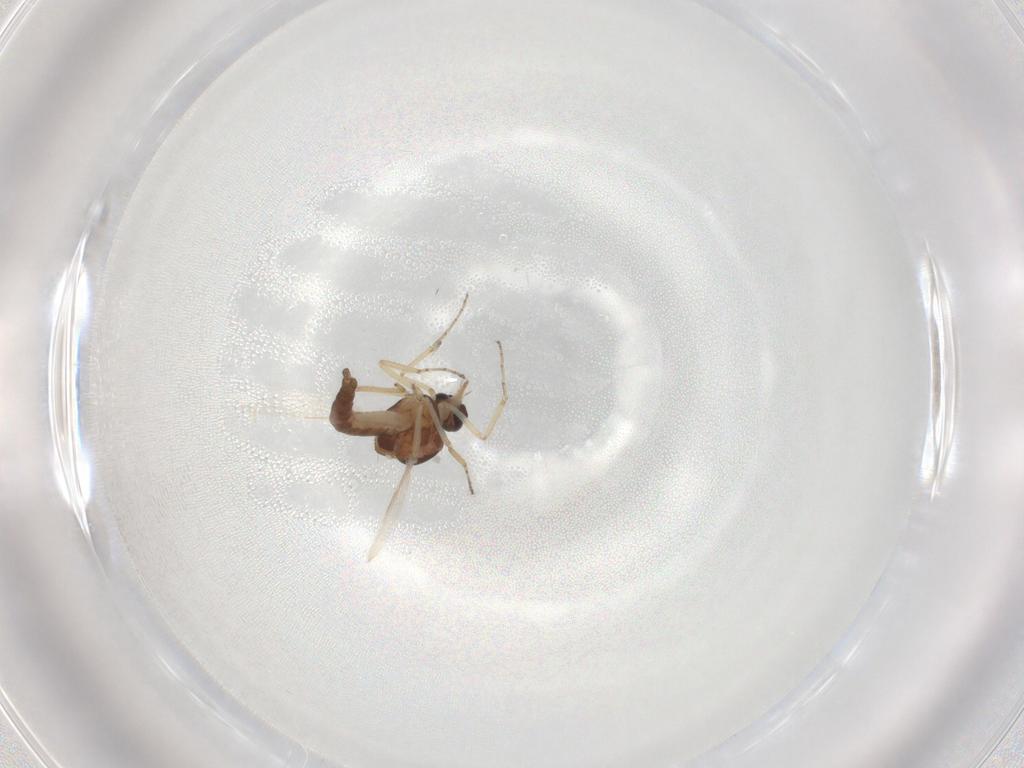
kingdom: Animalia
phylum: Arthropoda
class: Insecta
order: Diptera
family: Ceratopogonidae
